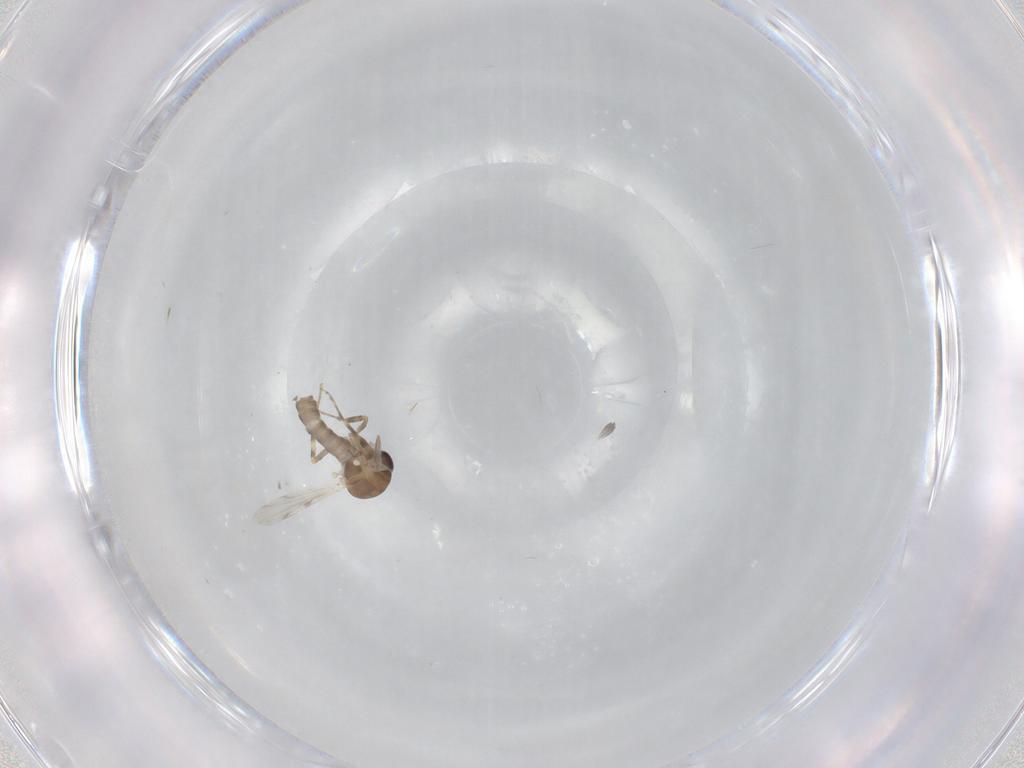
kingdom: Animalia
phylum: Arthropoda
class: Insecta
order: Diptera
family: Ceratopogonidae
